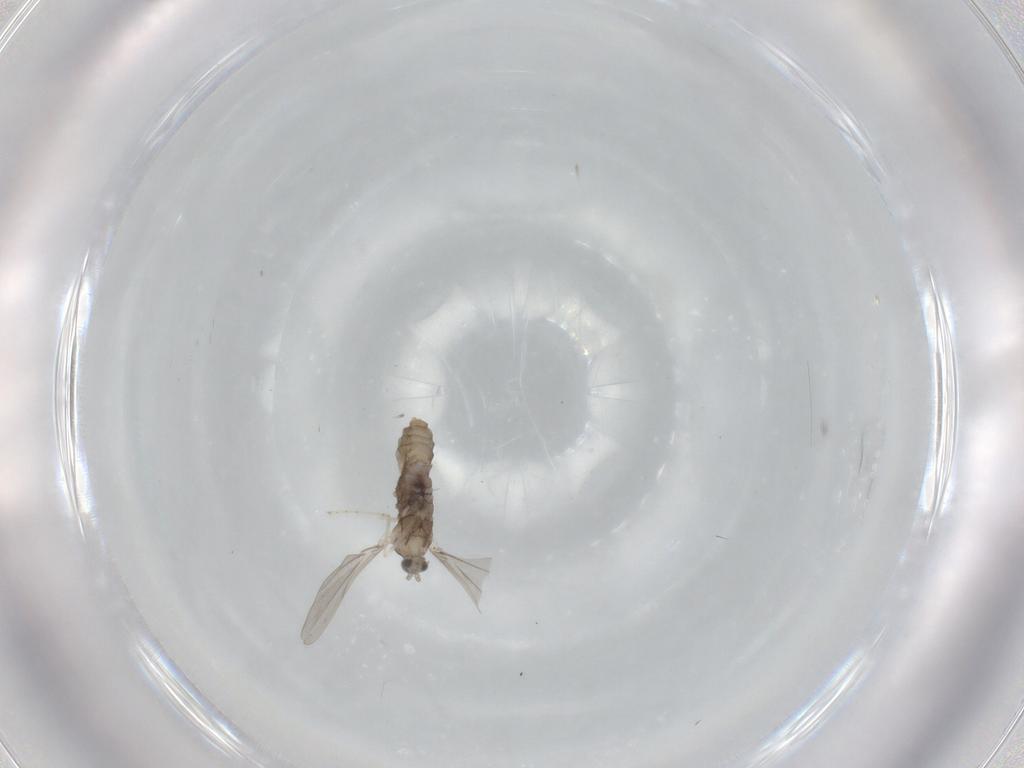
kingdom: Animalia
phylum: Arthropoda
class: Insecta
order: Diptera
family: Cecidomyiidae
